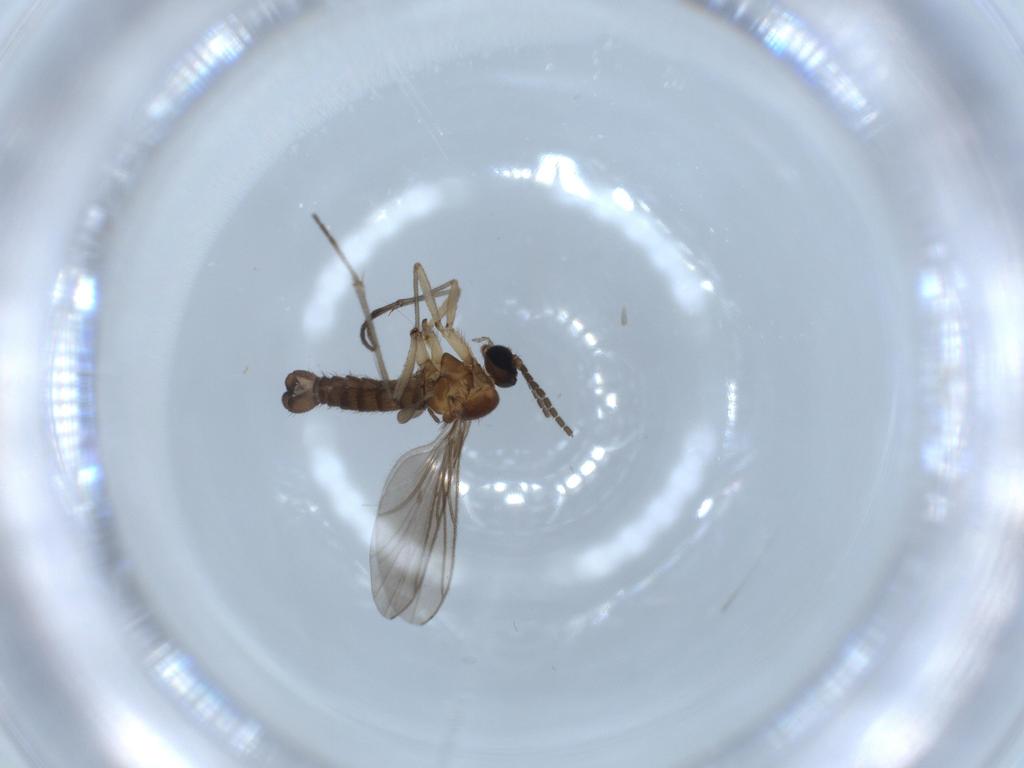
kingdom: Animalia
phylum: Arthropoda
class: Insecta
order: Diptera
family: Sciaridae
